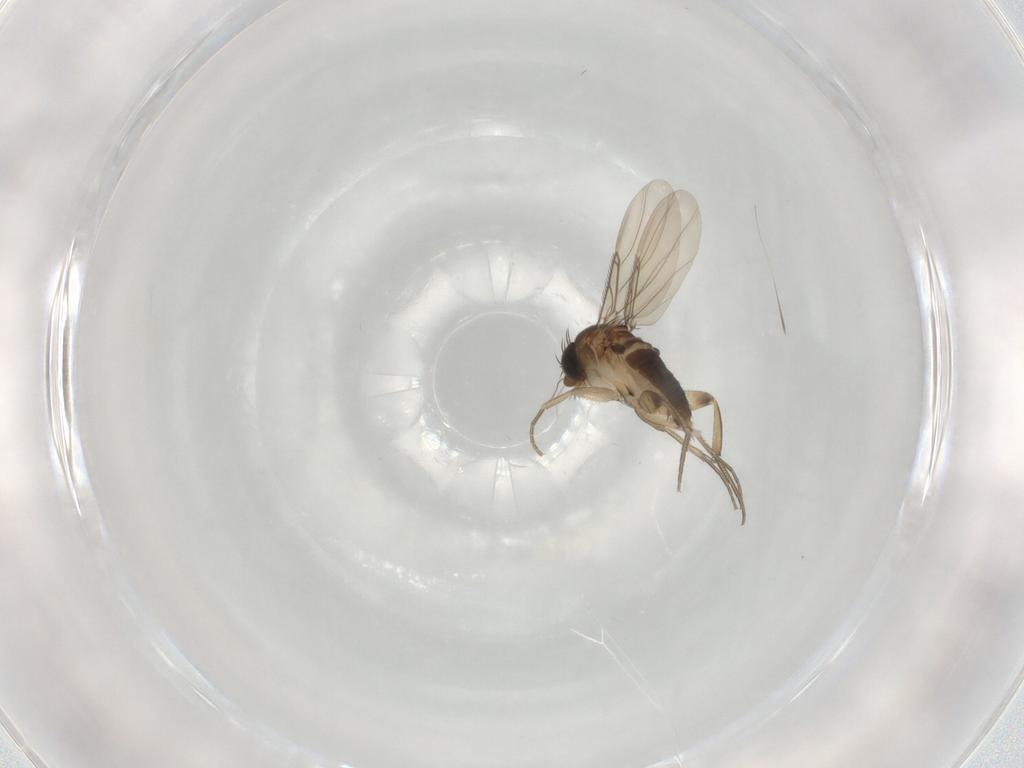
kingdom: Animalia
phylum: Arthropoda
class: Insecta
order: Diptera
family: Phoridae
